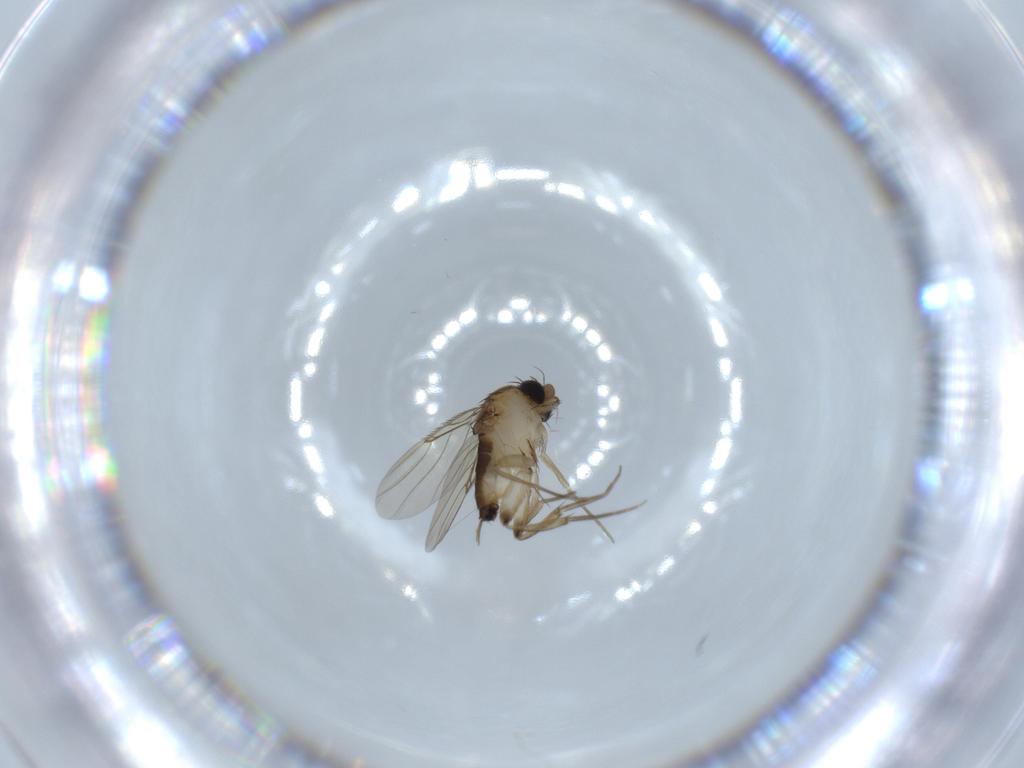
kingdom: Animalia
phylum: Arthropoda
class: Insecta
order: Diptera
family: Phoridae
